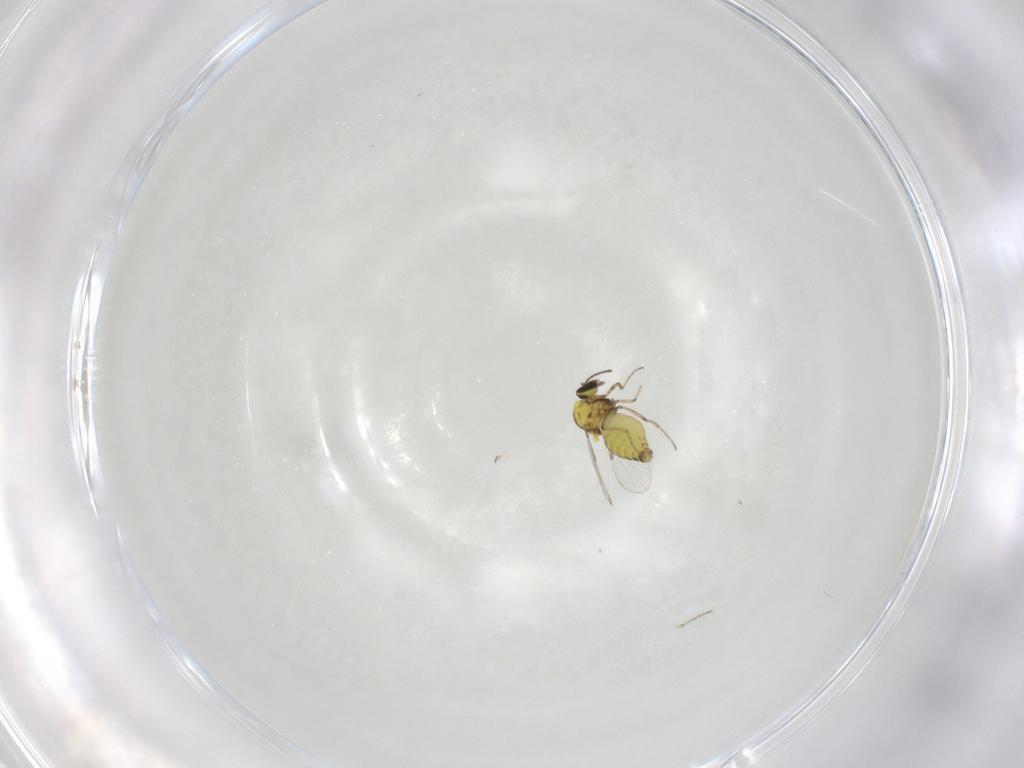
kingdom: Animalia
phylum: Arthropoda
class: Insecta
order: Diptera
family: Ceratopogonidae
